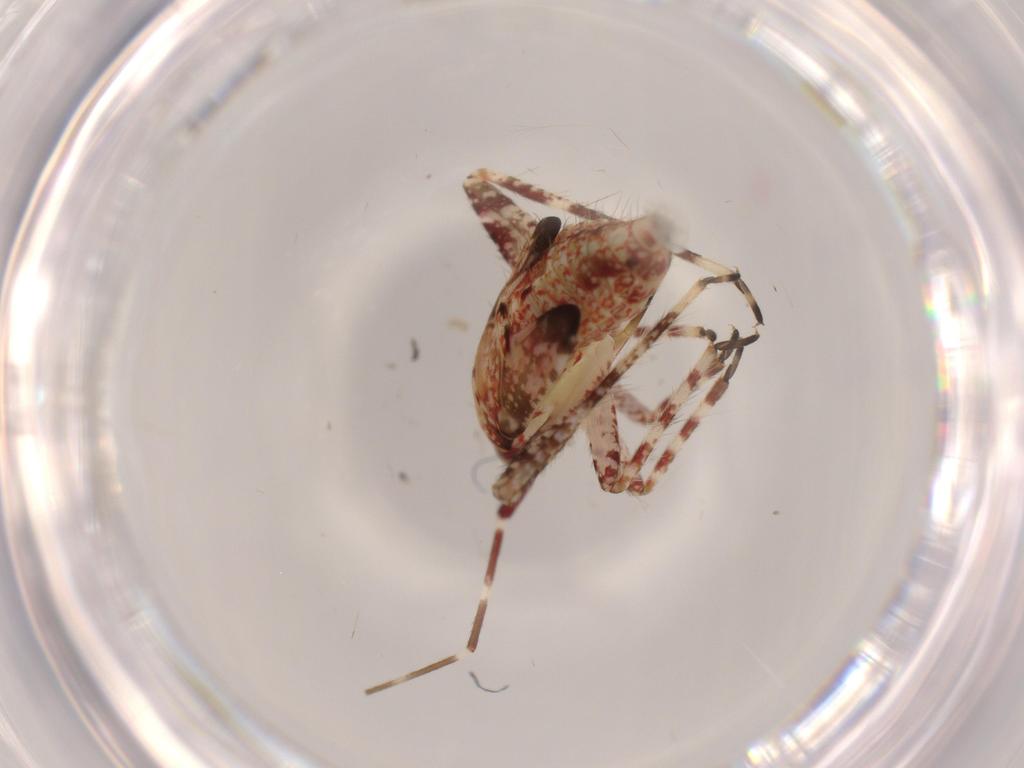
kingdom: Animalia
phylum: Arthropoda
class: Insecta
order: Hemiptera
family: Miridae
